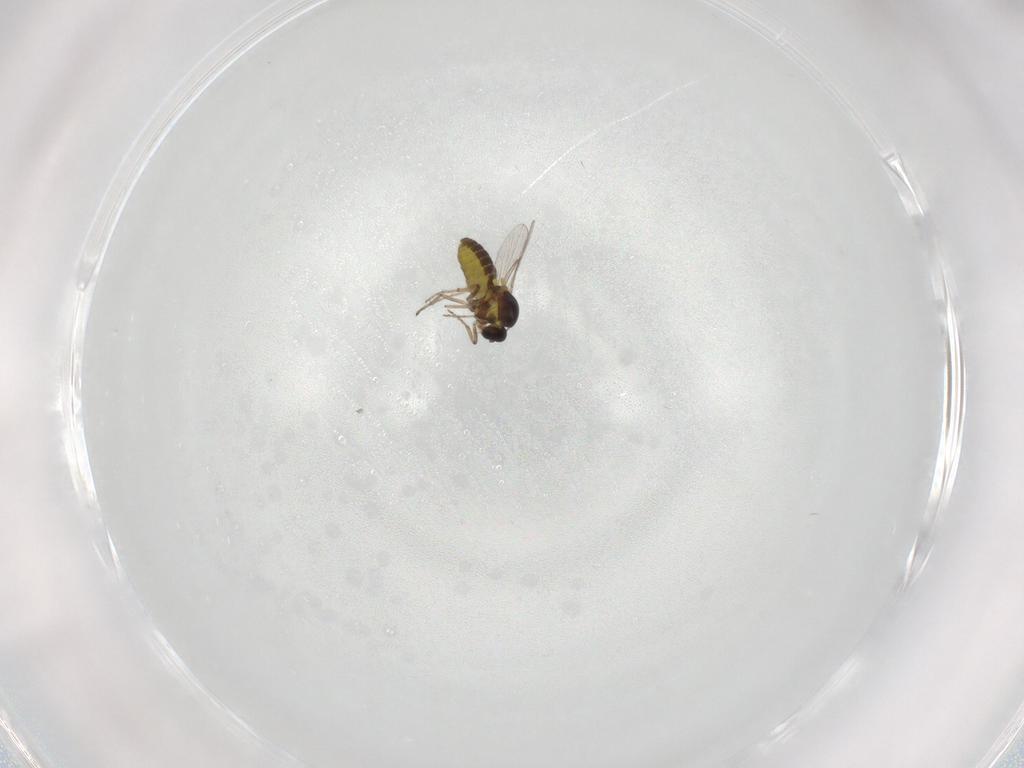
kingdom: Animalia
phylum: Arthropoda
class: Insecta
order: Diptera
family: Ceratopogonidae
